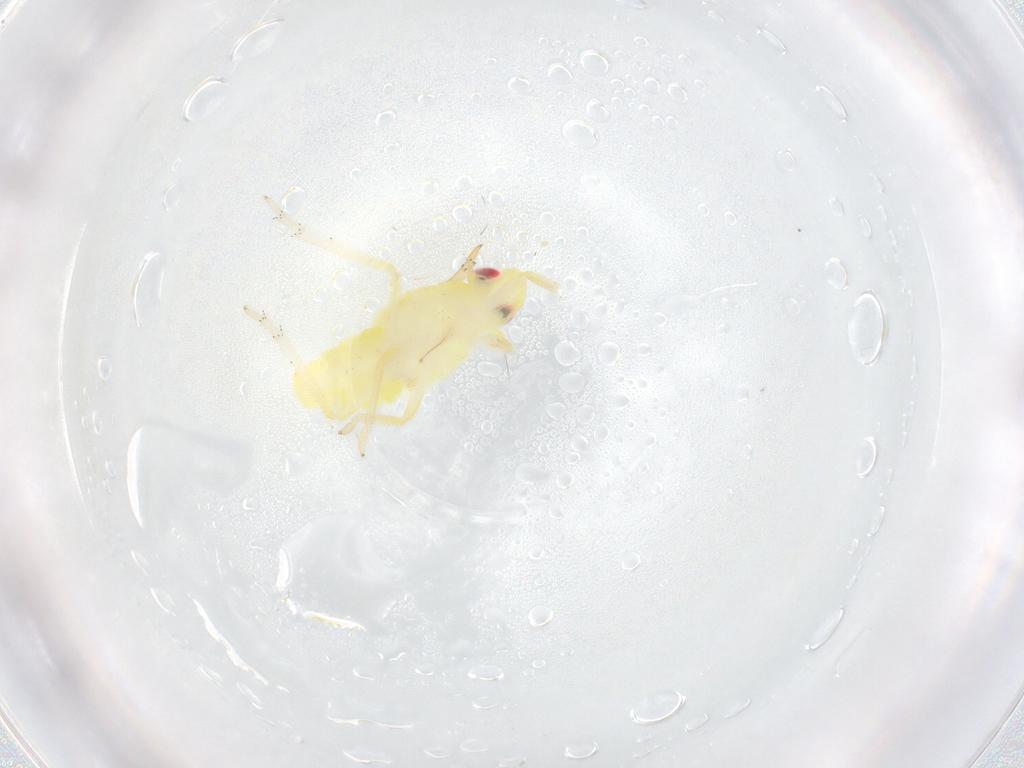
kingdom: Animalia
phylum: Arthropoda
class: Insecta
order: Hemiptera
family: Fulgoroidea_incertae_sedis
